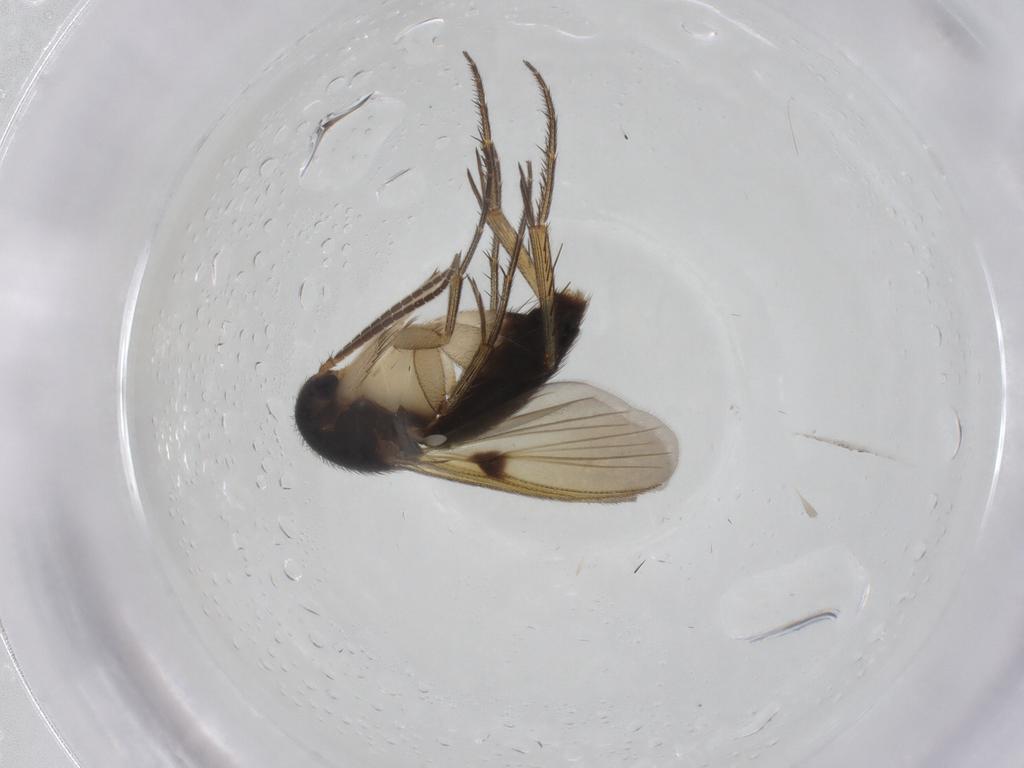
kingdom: Animalia
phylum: Arthropoda
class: Insecta
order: Diptera
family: Mycetophilidae
